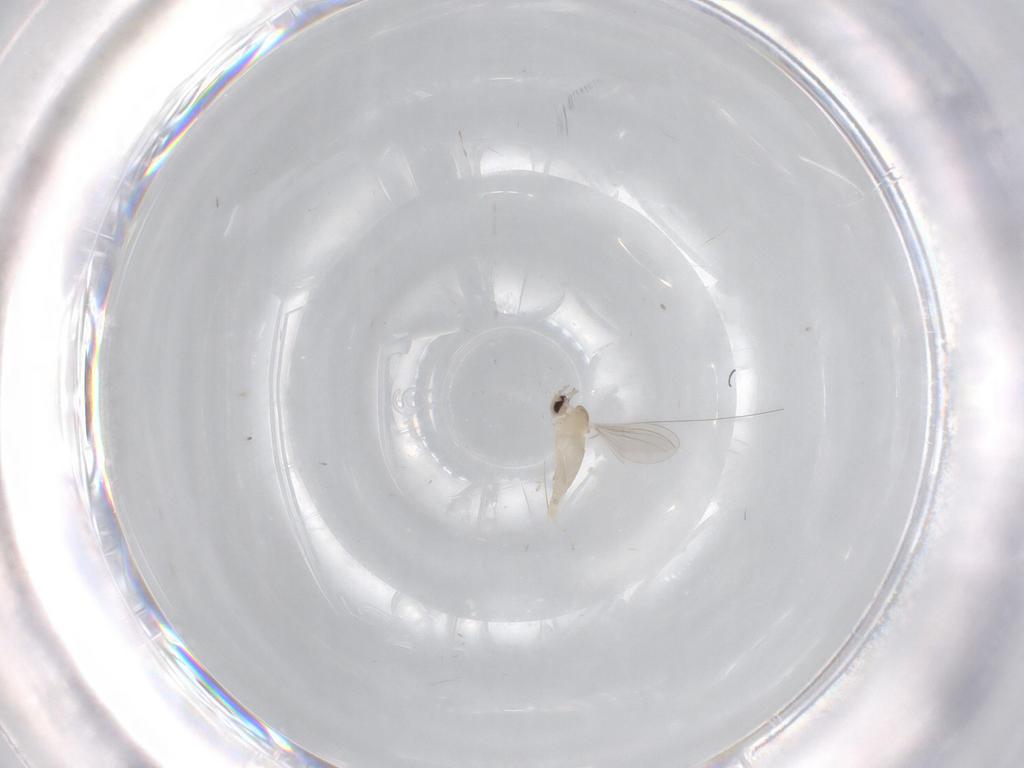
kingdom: Animalia
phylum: Arthropoda
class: Insecta
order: Diptera
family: Cecidomyiidae
